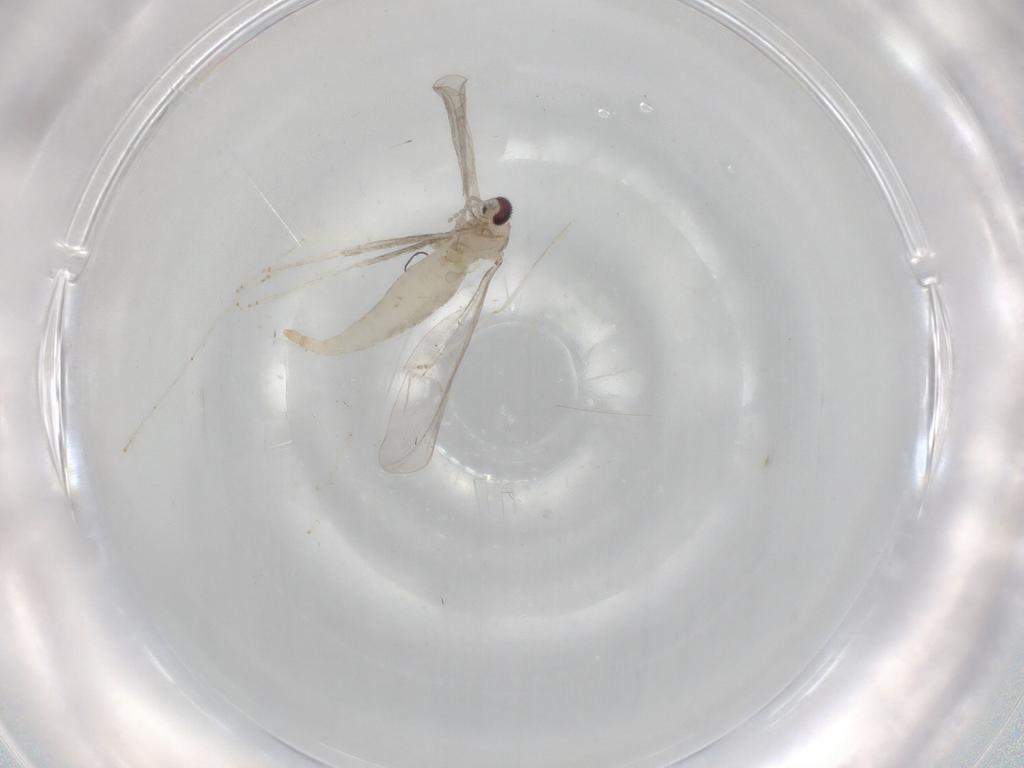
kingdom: Animalia
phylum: Arthropoda
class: Insecta
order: Diptera
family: Cecidomyiidae
